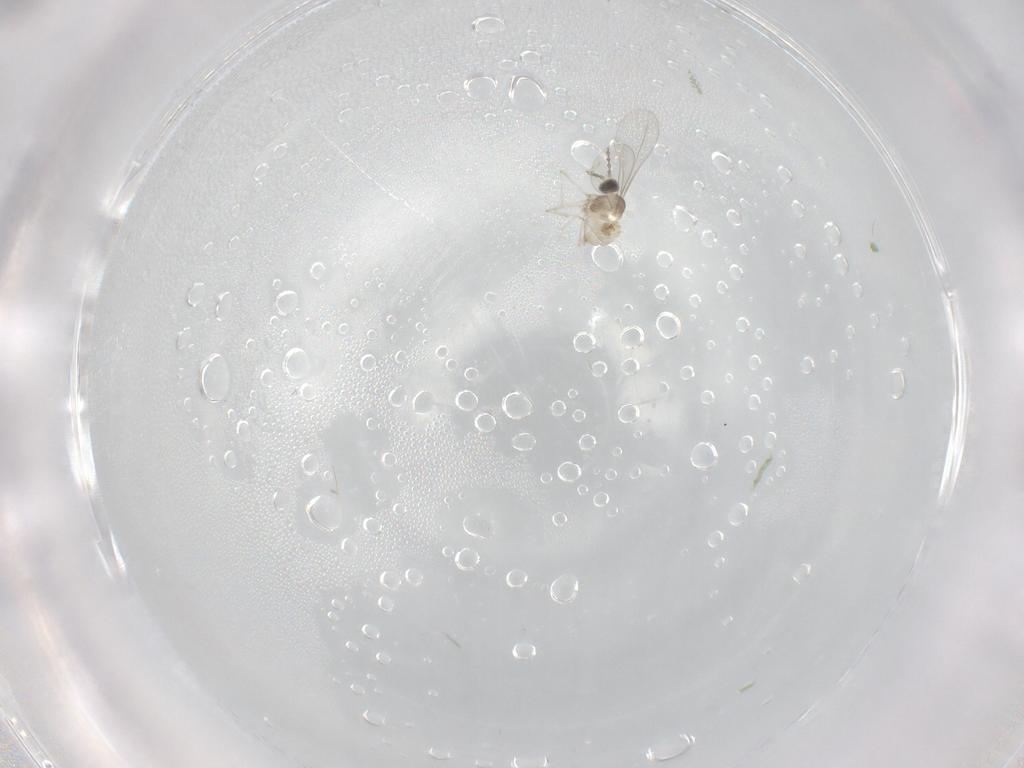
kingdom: Animalia
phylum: Arthropoda
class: Insecta
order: Diptera
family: Cecidomyiidae
